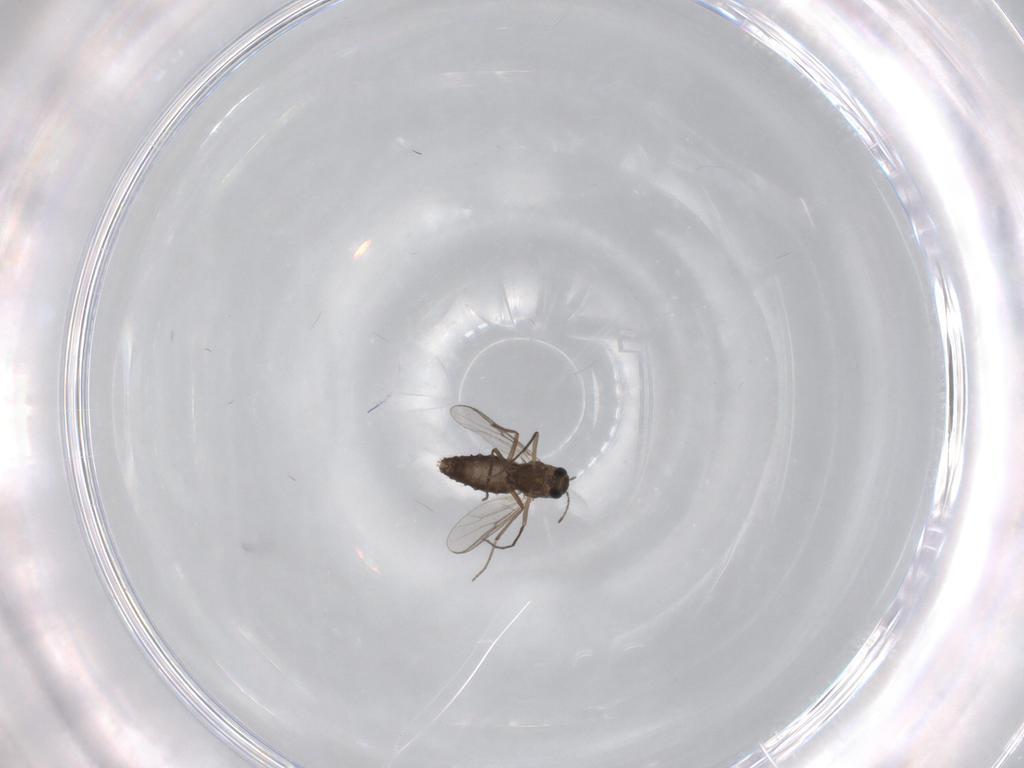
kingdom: Animalia
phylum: Arthropoda
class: Insecta
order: Diptera
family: Chironomidae
